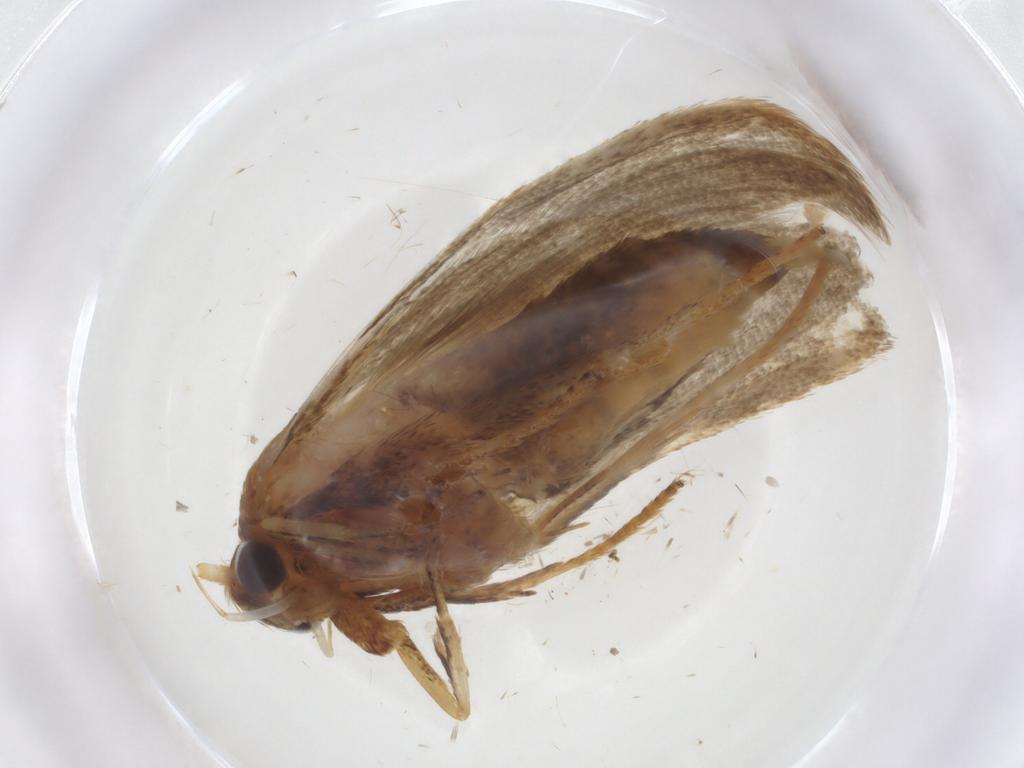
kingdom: Animalia
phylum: Arthropoda
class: Insecta
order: Lepidoptera
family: Blastobasidae
